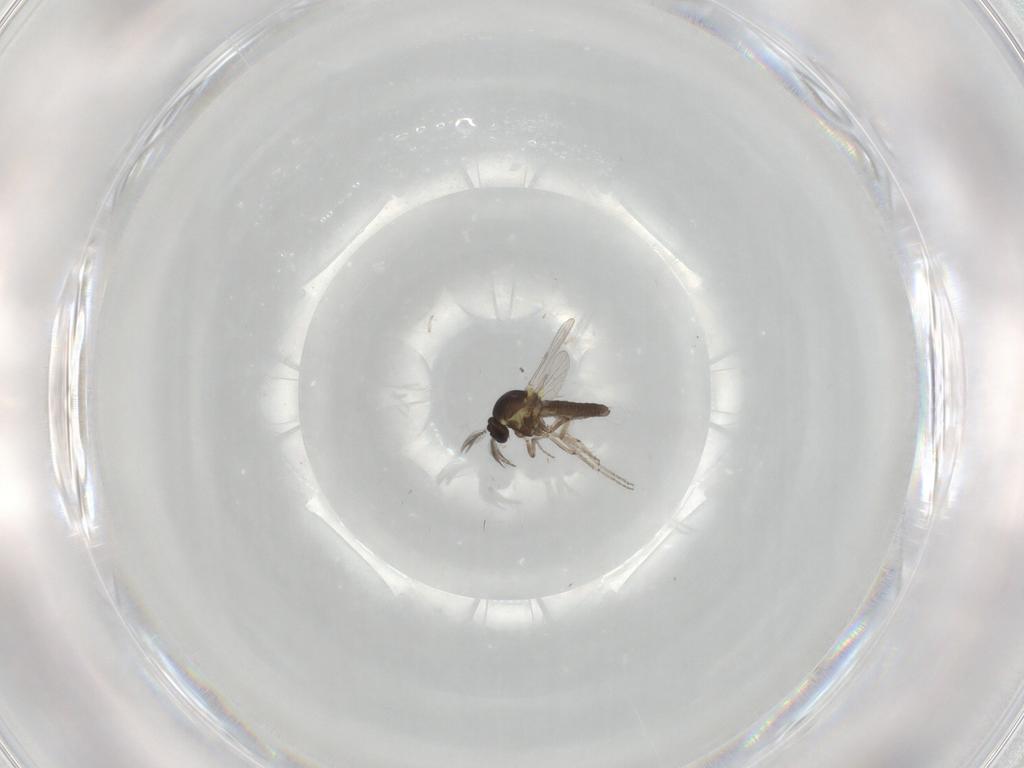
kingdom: Animalia
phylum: Arthropoda
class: Insecta
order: Diptera
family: Ceratopogonidae
